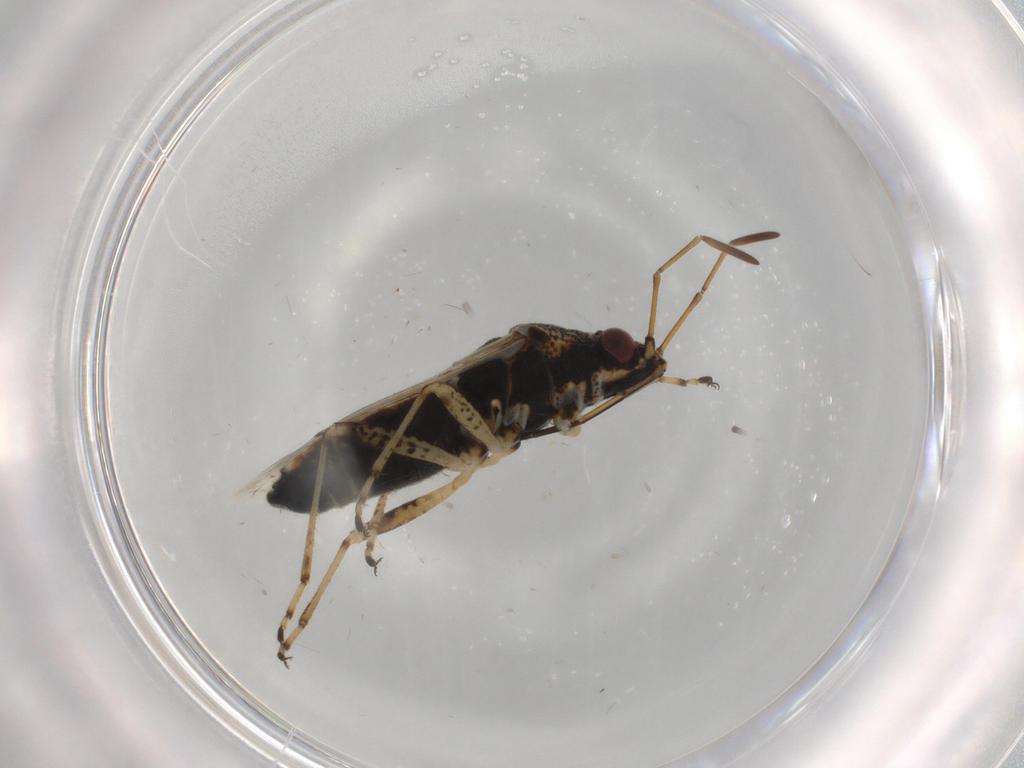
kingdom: Animalia
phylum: Arthropoda
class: Insecta
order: Hemiptera
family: Lygaeidae
